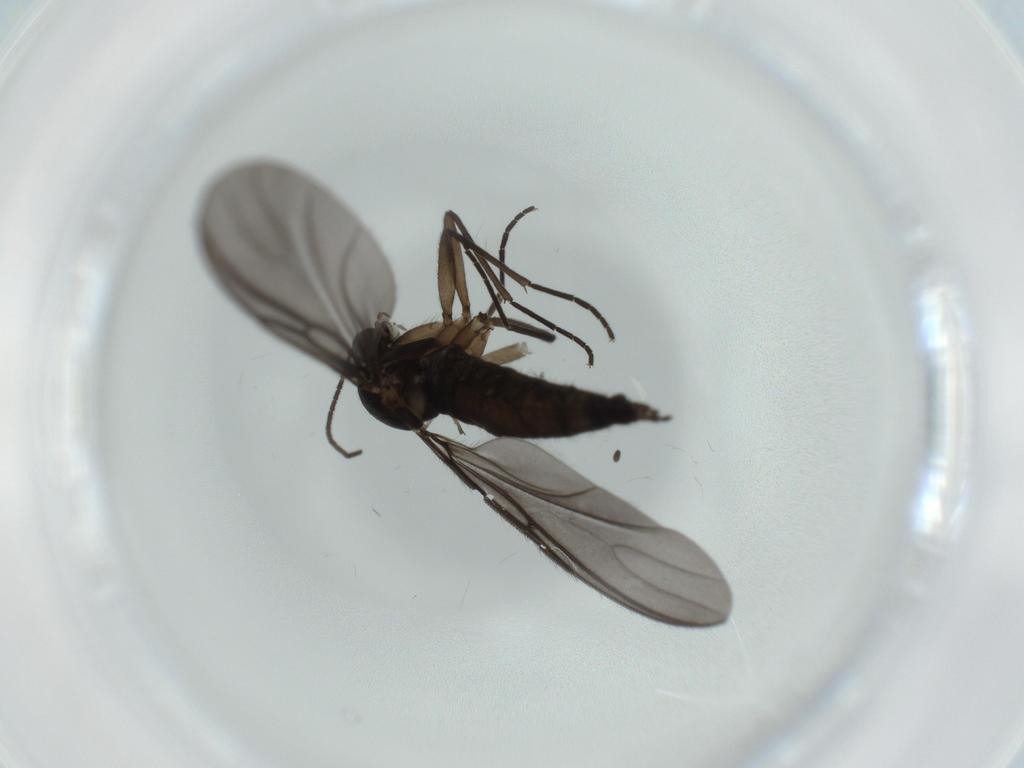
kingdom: Animalia
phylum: Arthropoda
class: Insecta
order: Diptera
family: Sciaridae
